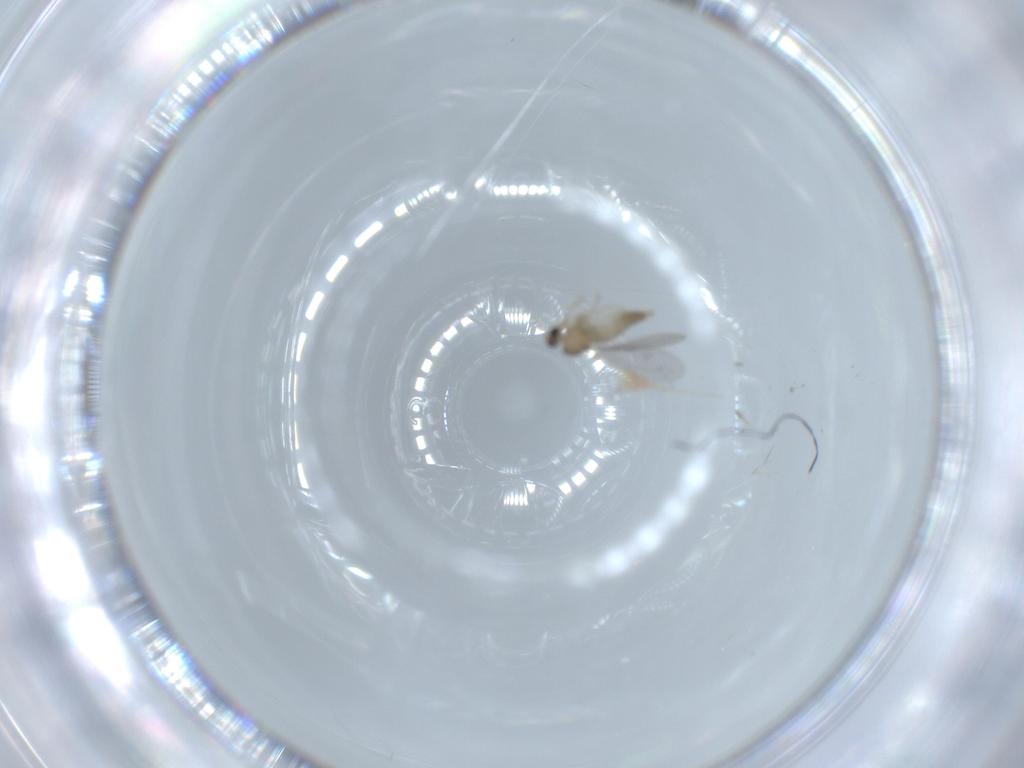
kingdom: Animalia
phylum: Arthropoda
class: Insecta
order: Diptera
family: Cecidomyiidae
